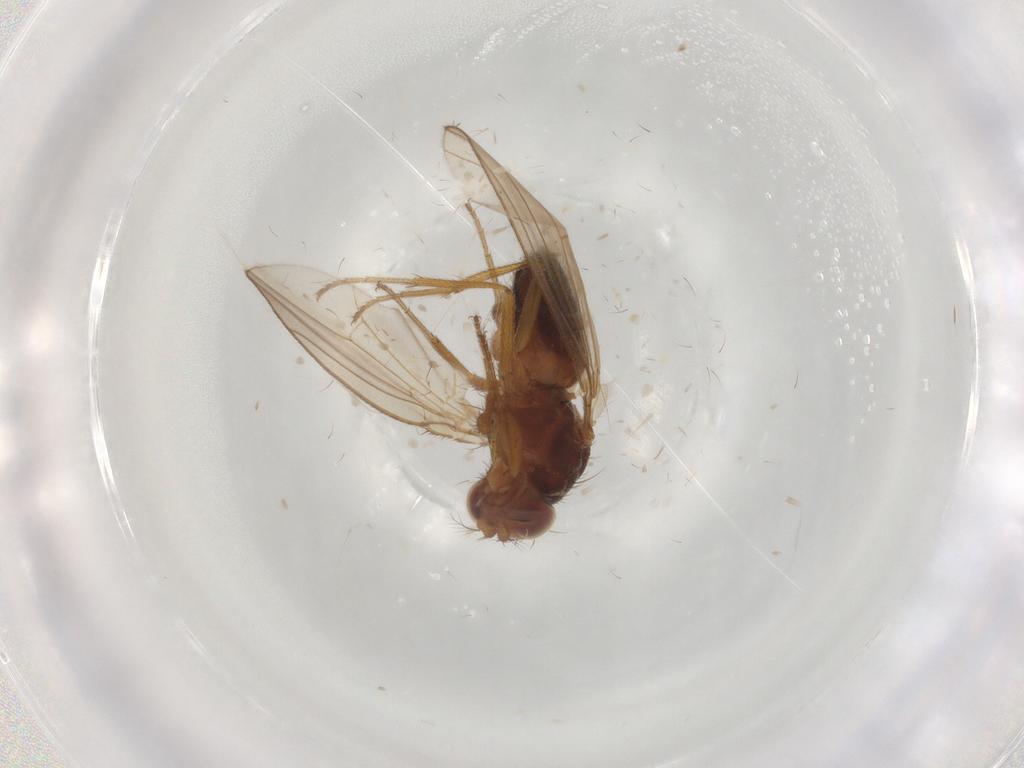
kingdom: Animalia
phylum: Arthropoda
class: Insecta
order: Diptera
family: Drosophilidae
